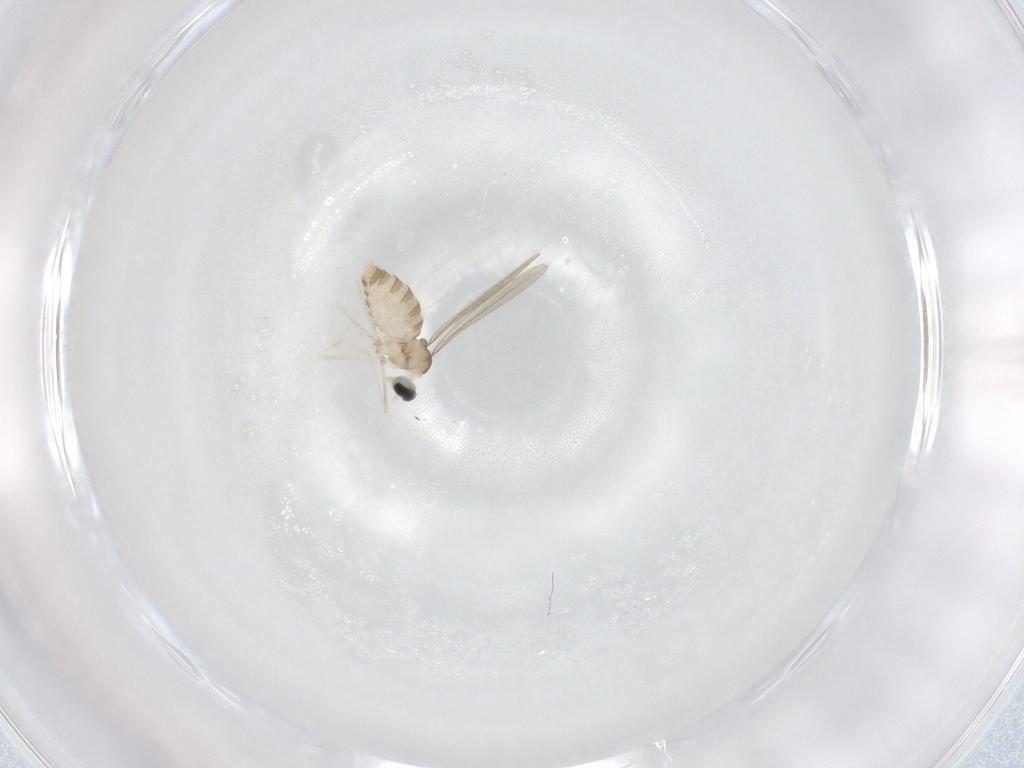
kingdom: Animalia
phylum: Arthropoda
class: Insecta
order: Diptera
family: Cecidomyiidae
